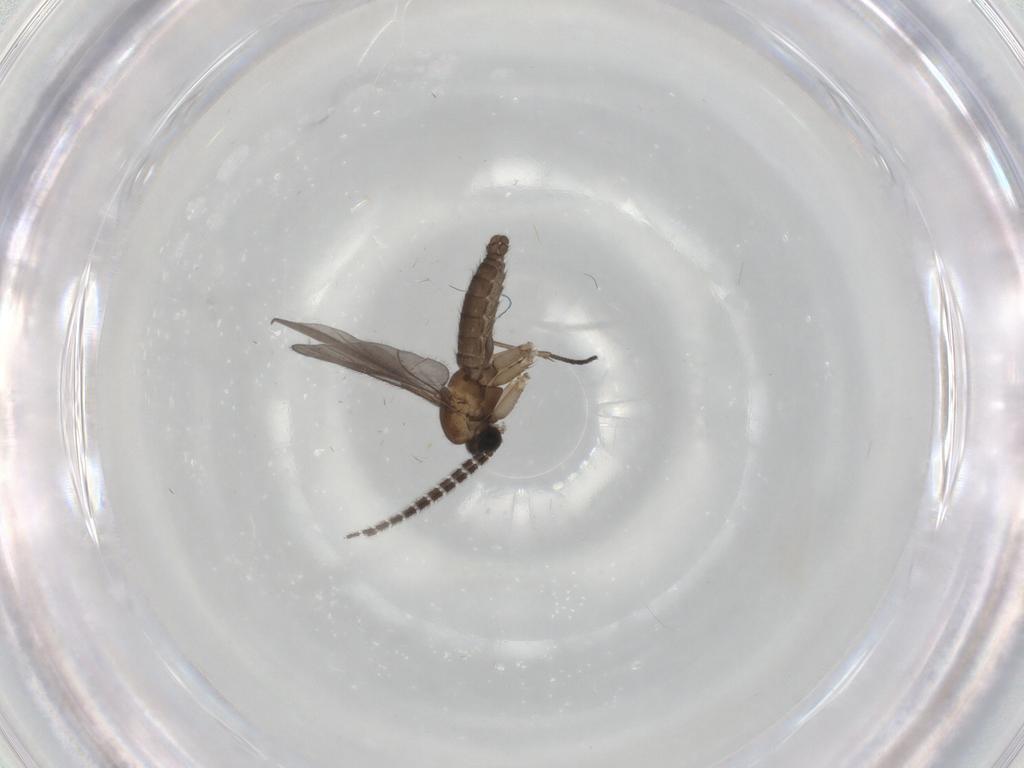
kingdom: Animalia
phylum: Arthropoda
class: Insecta
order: Diptera
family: Sciaridae
